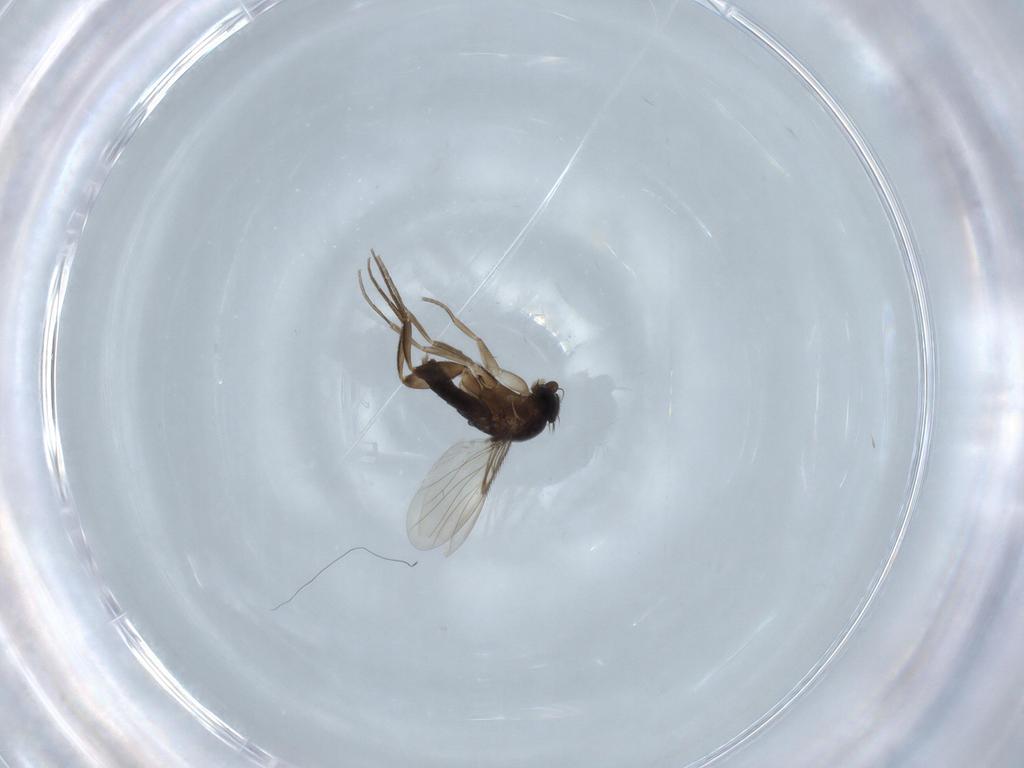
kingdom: Animalia
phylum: Arthropoda
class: Insecta
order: Diptera
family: Phoridae
